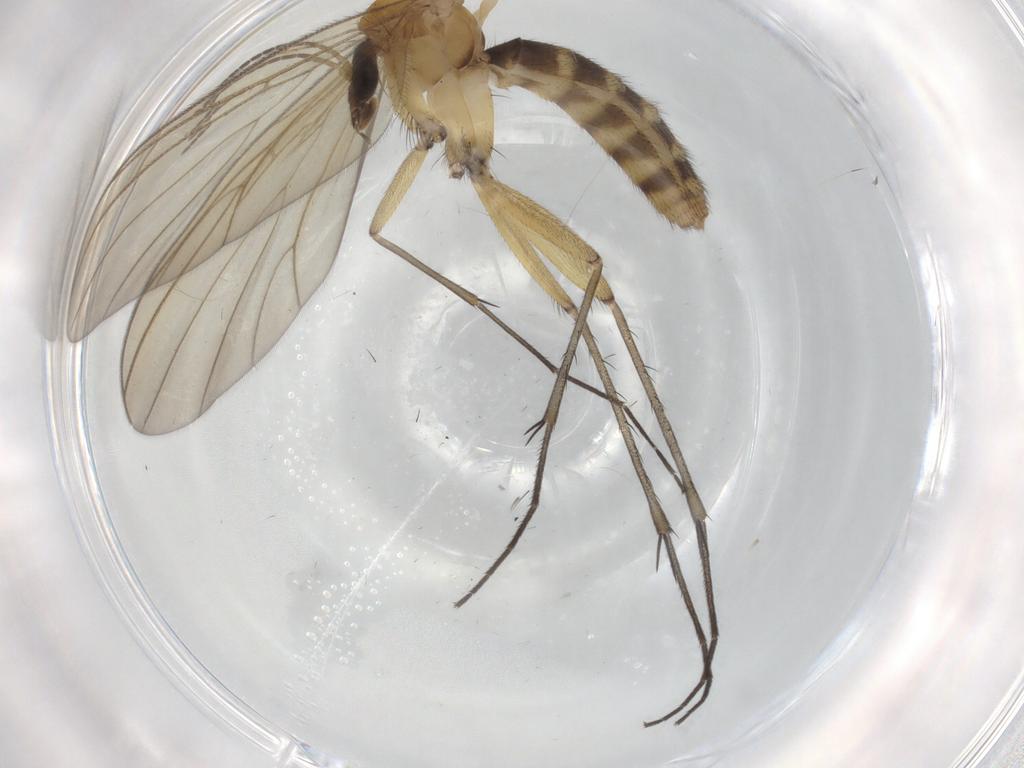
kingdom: Animalia
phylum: Arthropoda
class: Insecta
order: Diptera
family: Mycetophilidae
